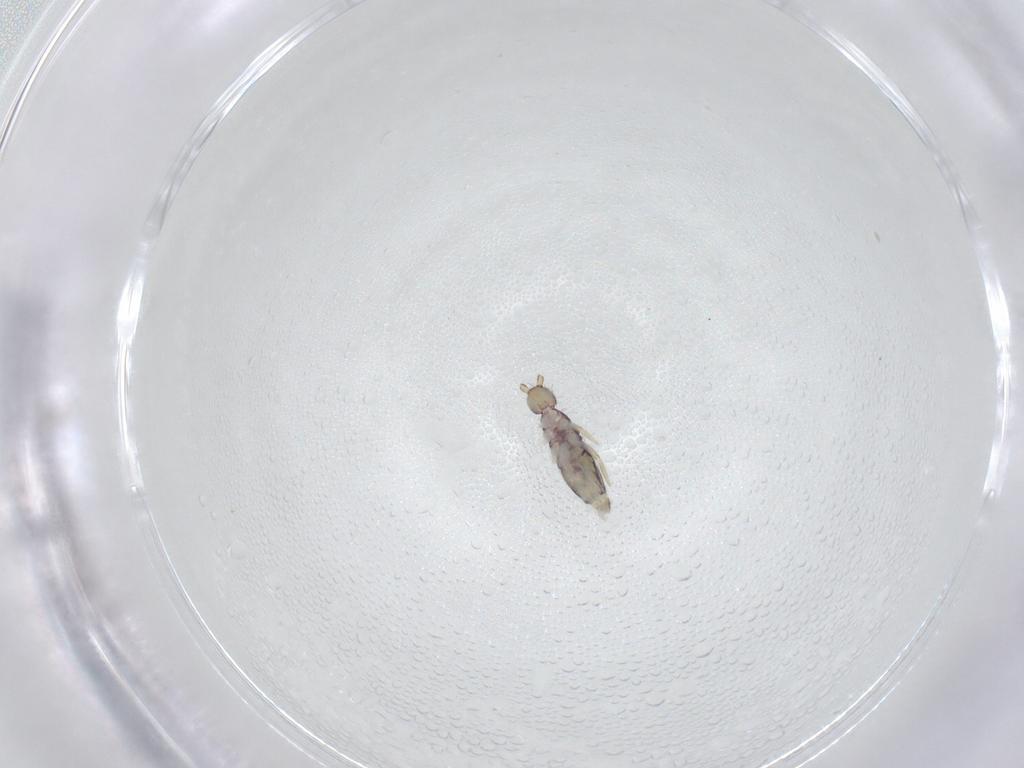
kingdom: Animalia
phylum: Arthropoda
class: Collembola
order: Entomobryomorpha
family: Entomobryidae
